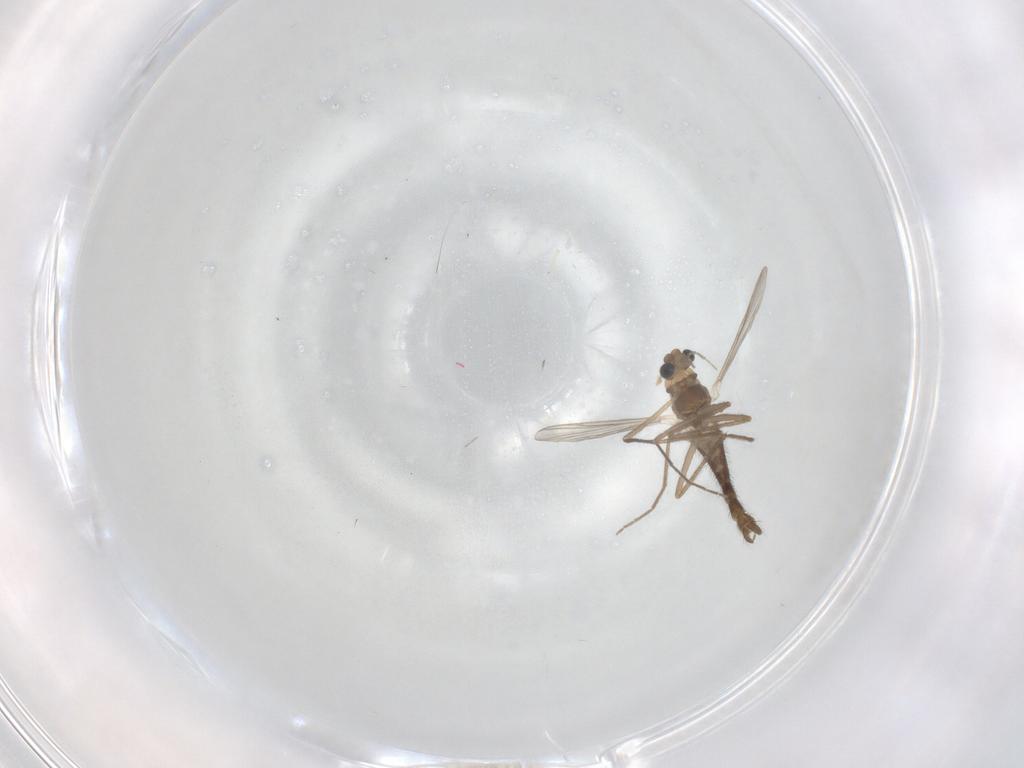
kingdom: Animalia
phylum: Arthropoda
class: Insecta
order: Diptera
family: Chironomidae
